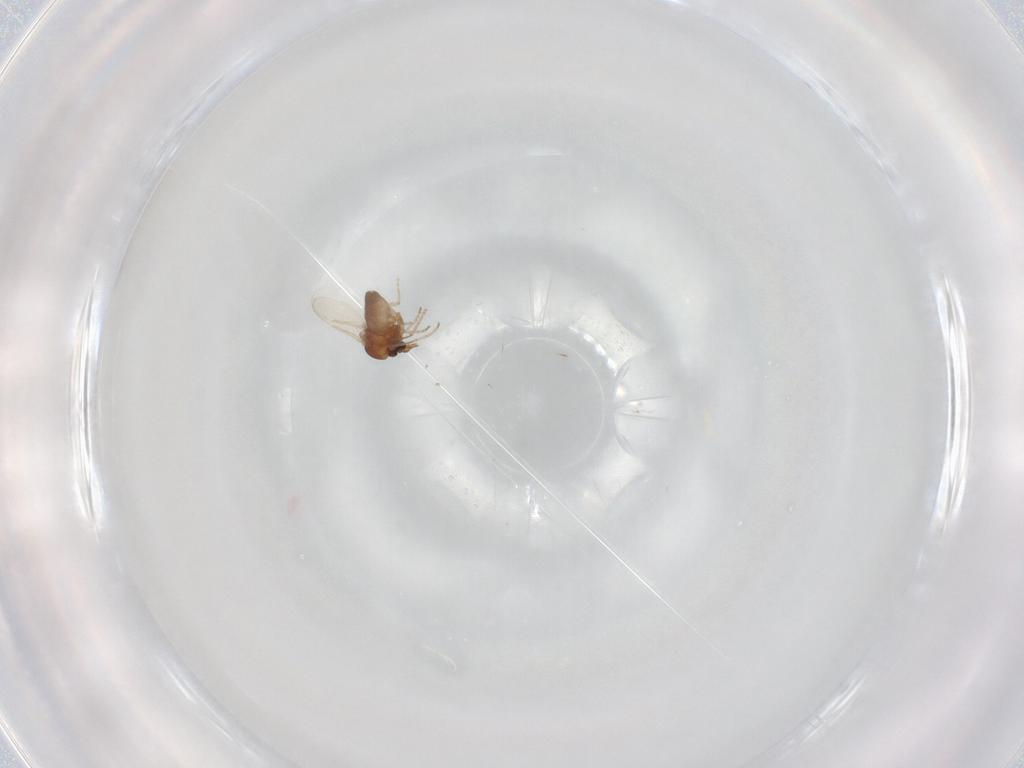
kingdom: Animalia
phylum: Arthropoda
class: Insecta
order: Diptera
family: Ceratopogonidae
